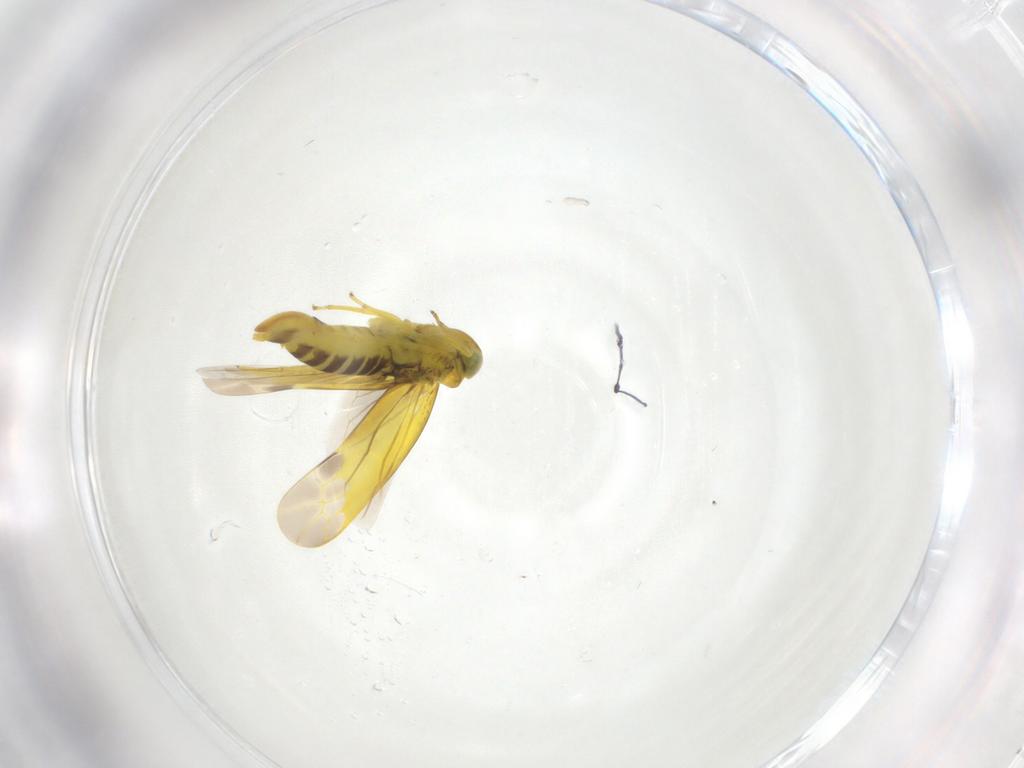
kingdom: Animalia
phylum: Arthropoda
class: Insecta
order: Hemiptera
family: Cicadellidae
